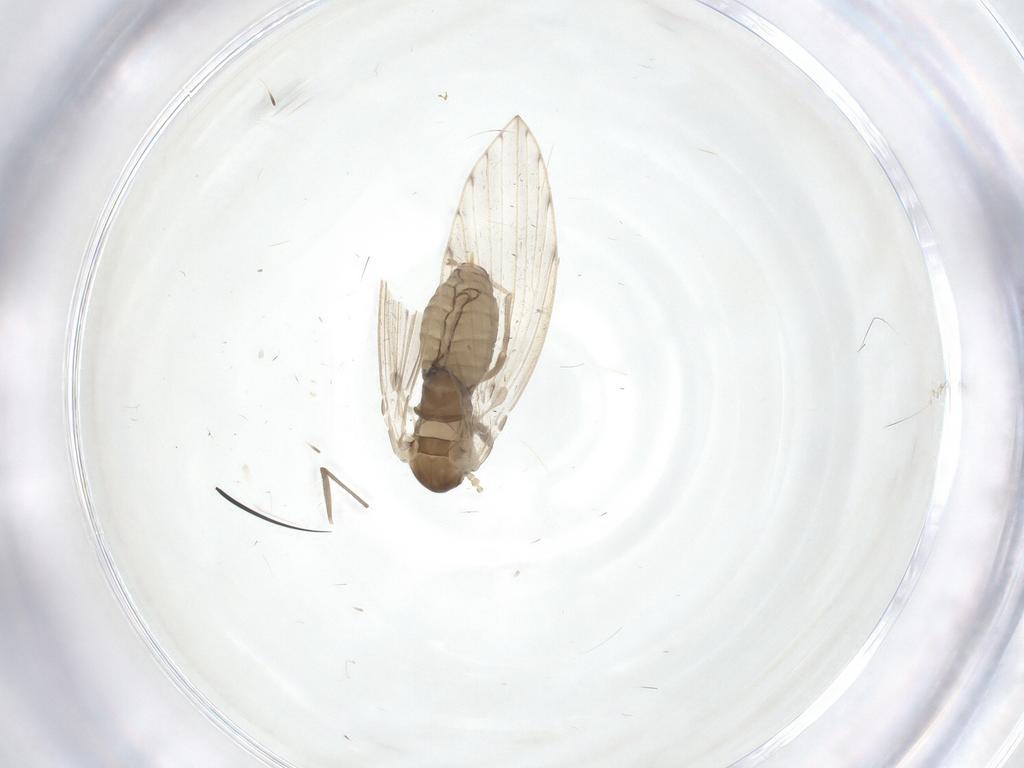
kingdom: Animalia
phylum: Arthropoda
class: Insecta
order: Diptera
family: Psychodidae
